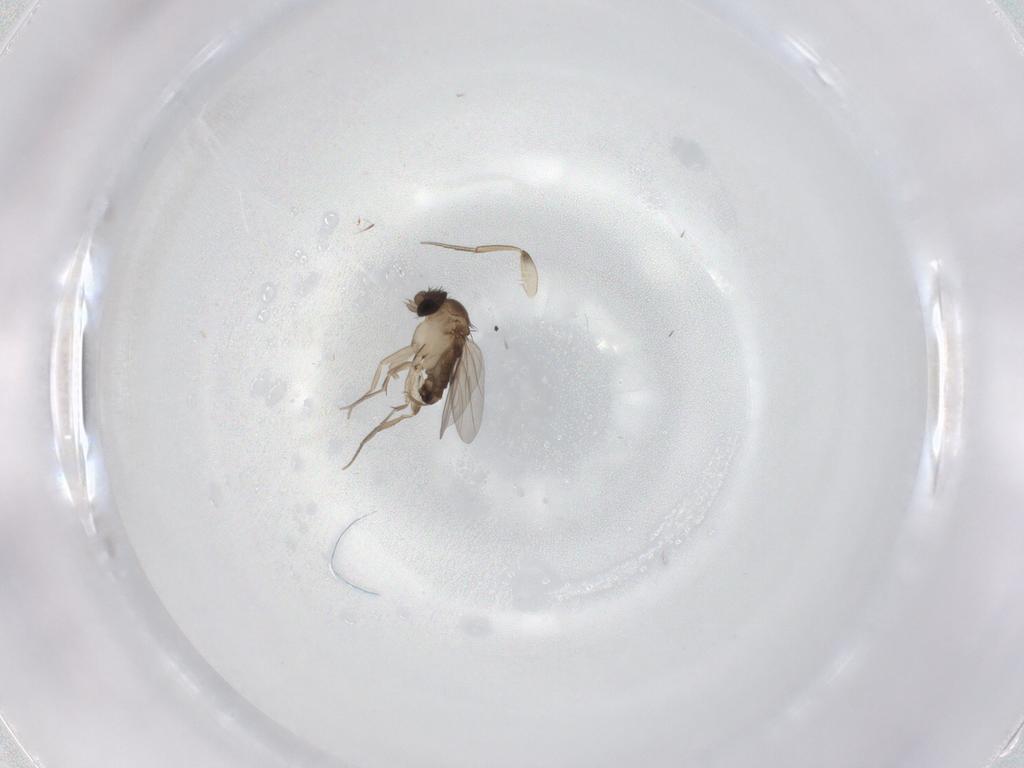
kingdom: Animalia
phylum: Arthropoda
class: Insecta
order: Diptera
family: Phoridae
